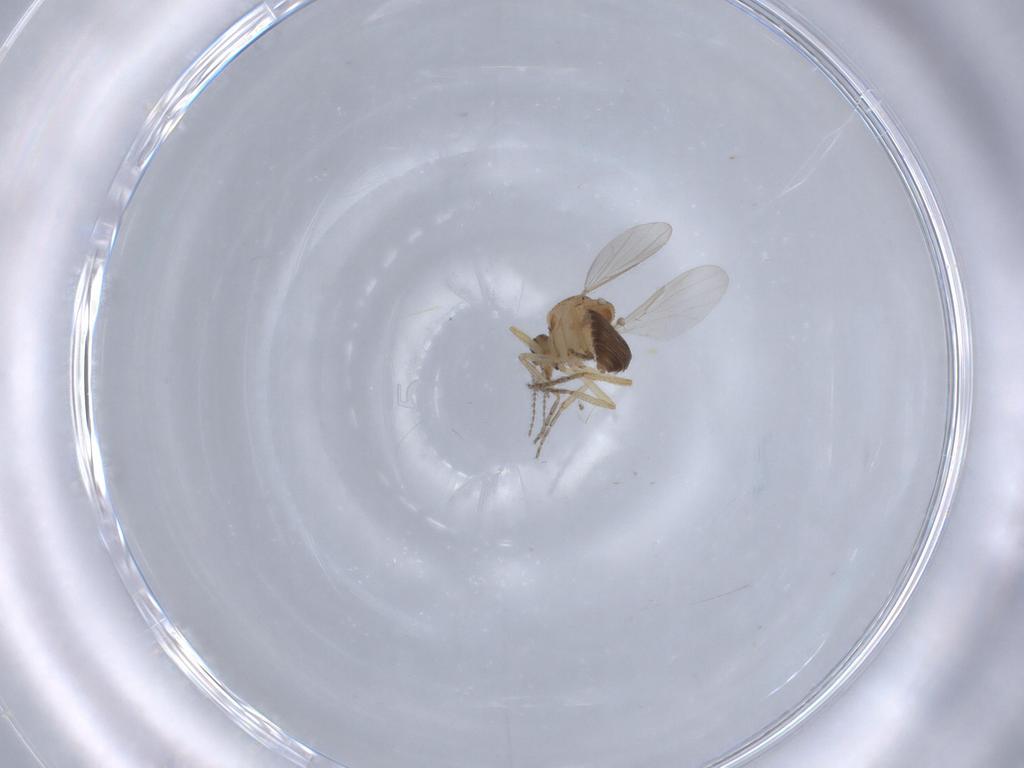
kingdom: Animalia
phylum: Arthropoda
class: Insecta
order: Diptera
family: Ceratopogonidae
